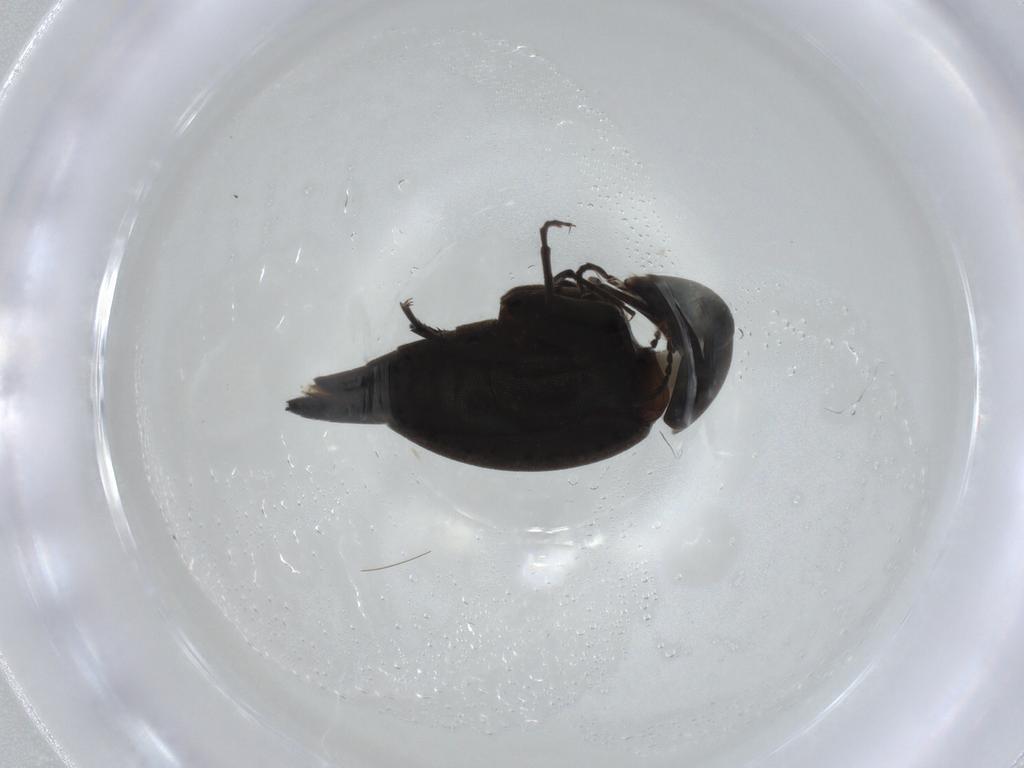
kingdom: Animalia
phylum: Arthropoda
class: Insecta
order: Coleoptera
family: Mordellidae
